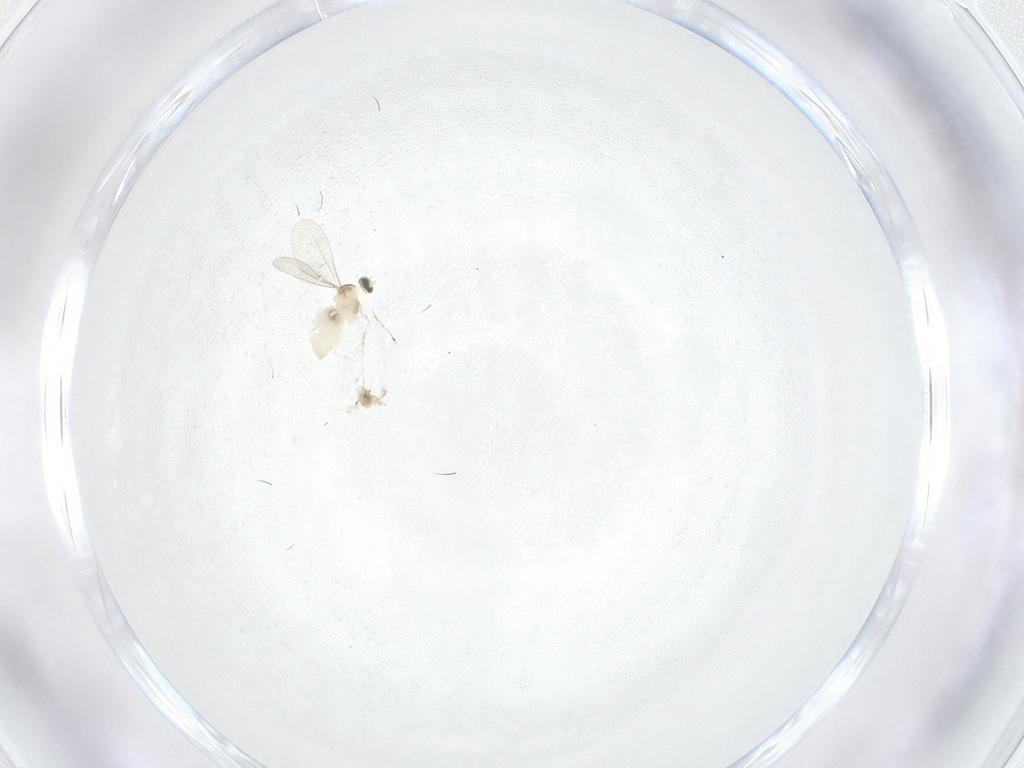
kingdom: Animalia
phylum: Arthropoda
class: Insecta
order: Diptera
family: Cecidomyiidae
